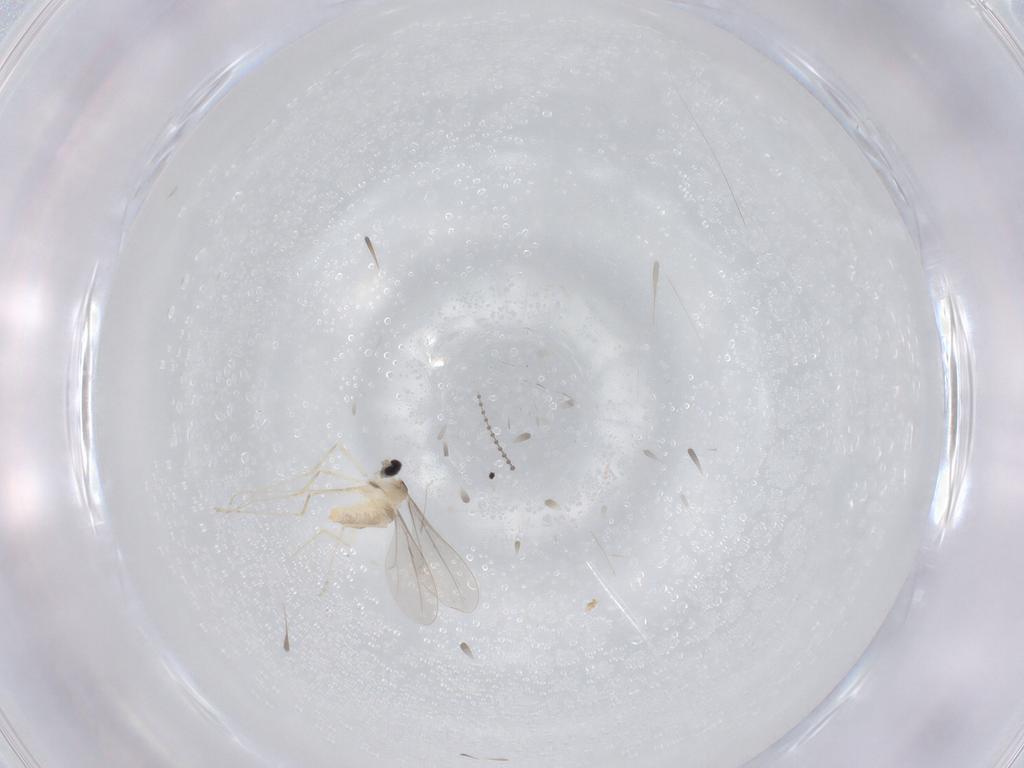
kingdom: Animalia
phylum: Arthropoda
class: Insecta
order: Diptera
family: Cecidomyiidae
